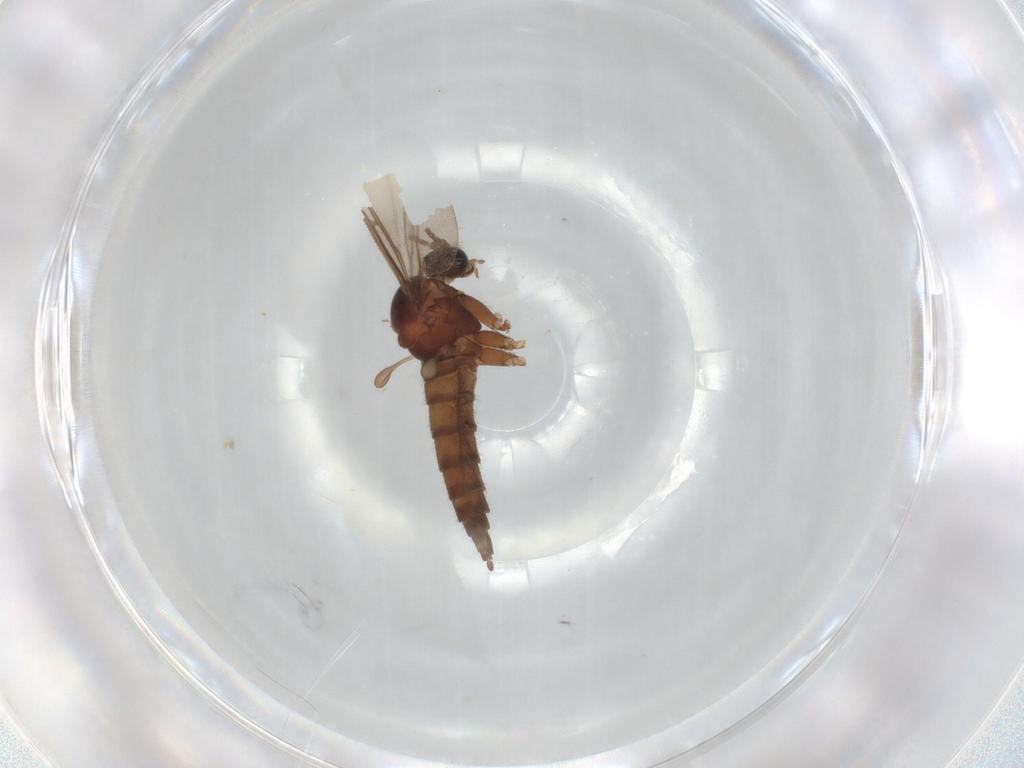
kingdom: Animalia
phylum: Arthropoda
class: Insecta
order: Diptera
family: Sciaridae
